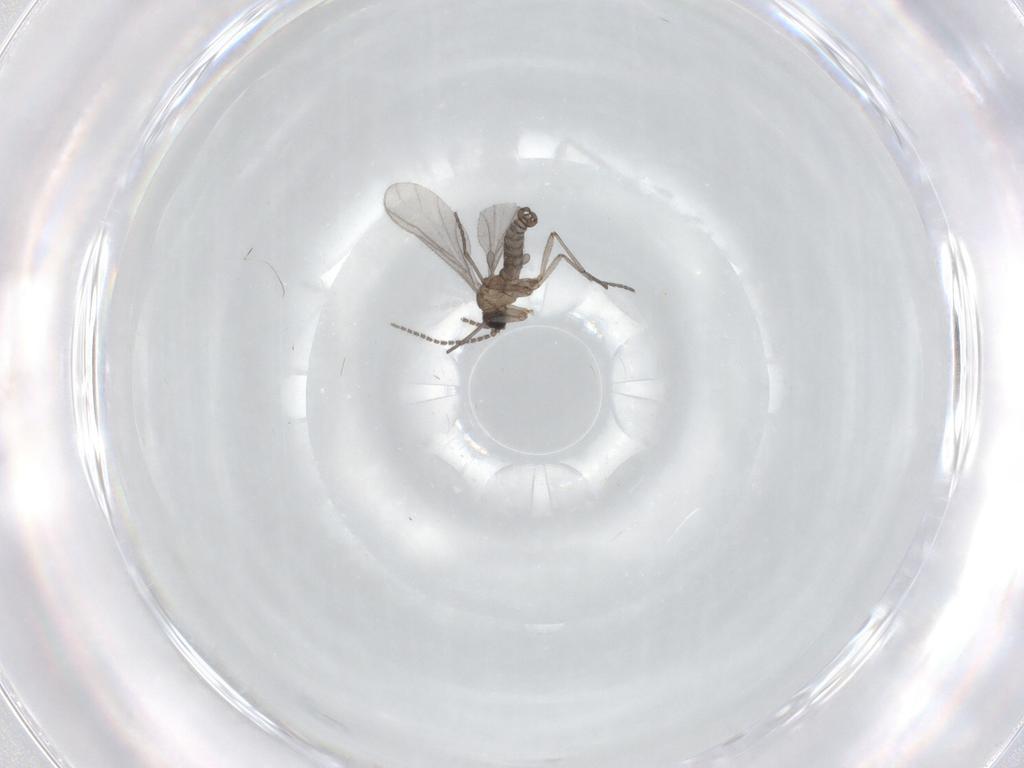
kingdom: Animalia
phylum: Arthropoda
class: Insecta
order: Diptera
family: Sciaridae
